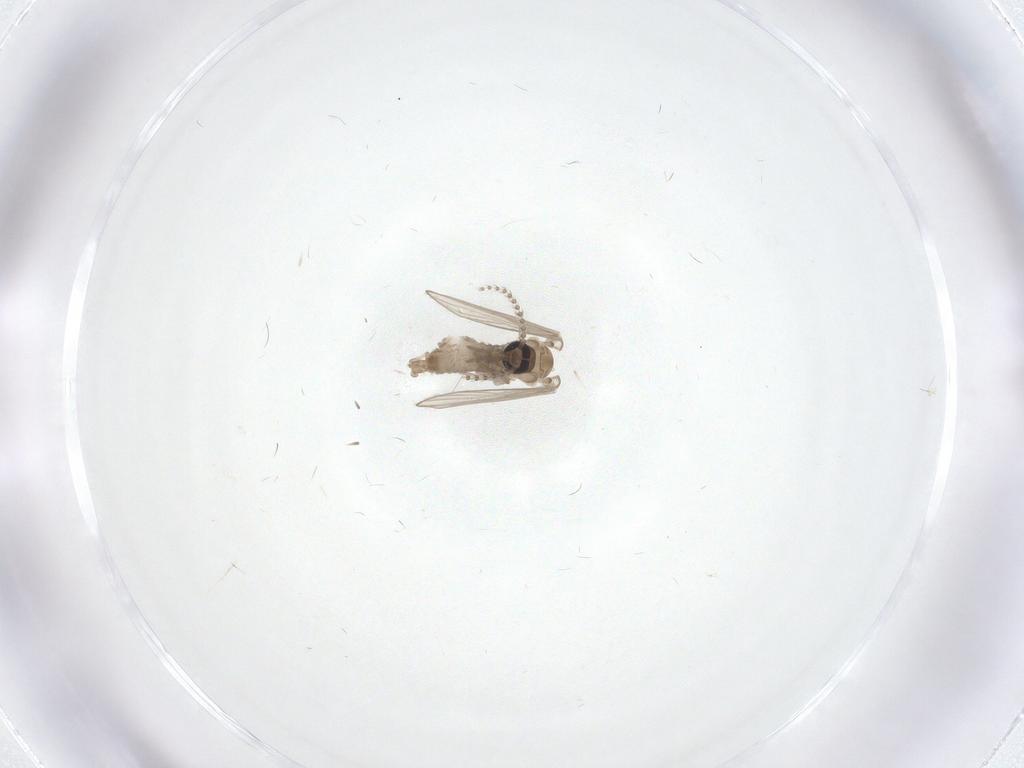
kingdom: Animalia
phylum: Arthropoda
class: Insecta
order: Diptera
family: Psychodidae
